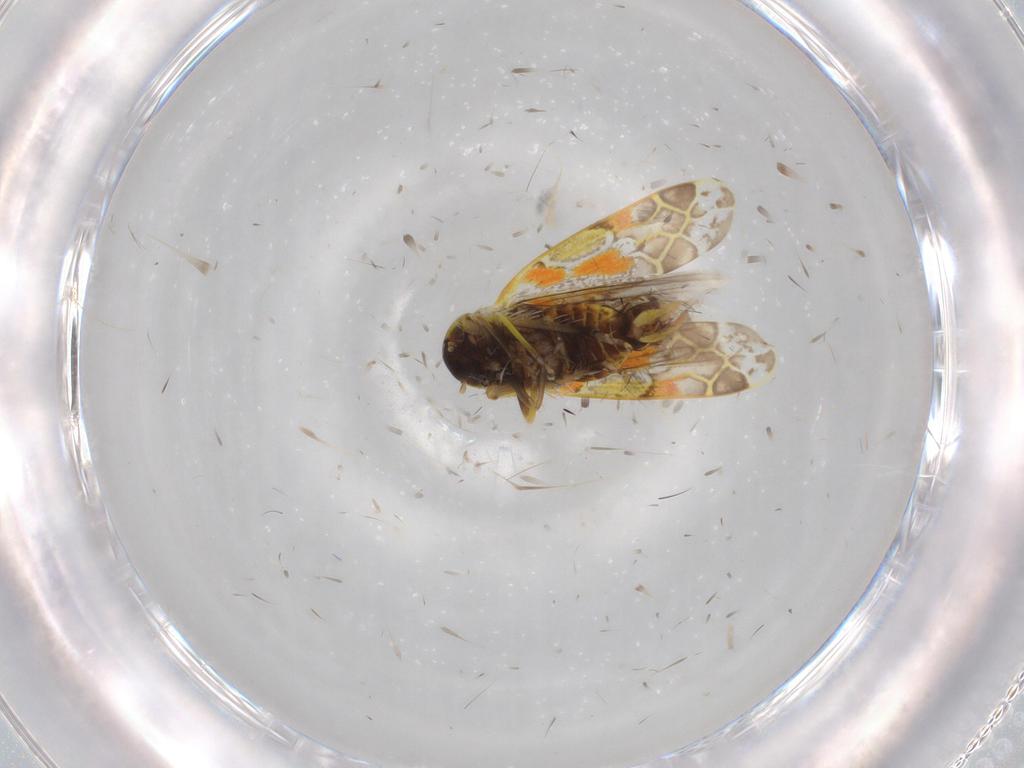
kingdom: Animalia
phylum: Arthropoda
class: Insecta
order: Hemiptera
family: Cicadellidae
